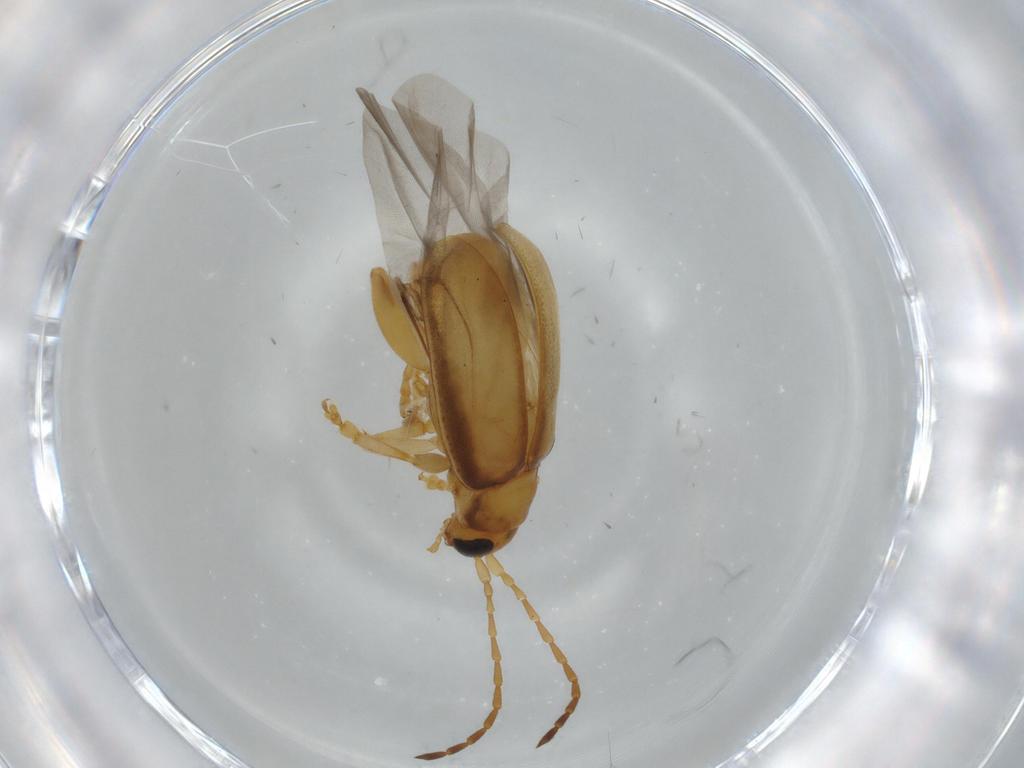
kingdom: Animalia
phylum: Arthropoda
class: Insecta
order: Coleoptera
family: Chrysomelidae
